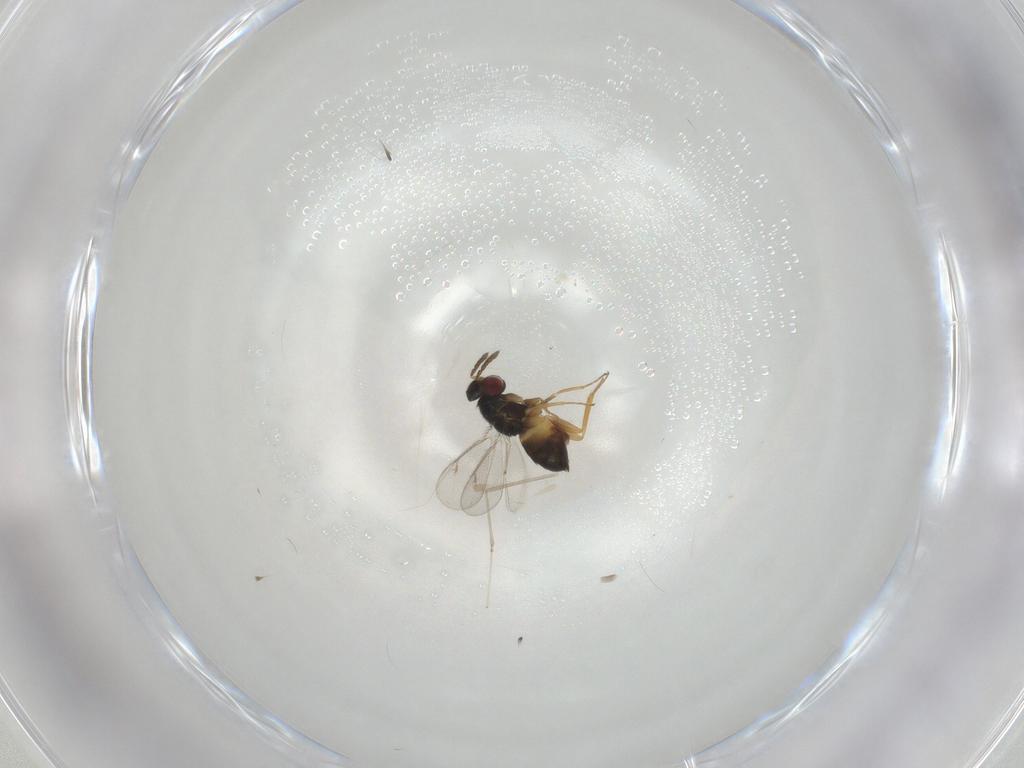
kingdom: Animalia
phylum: Arthropoda
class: Insecta
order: Hymenoptera
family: Eulophidae
